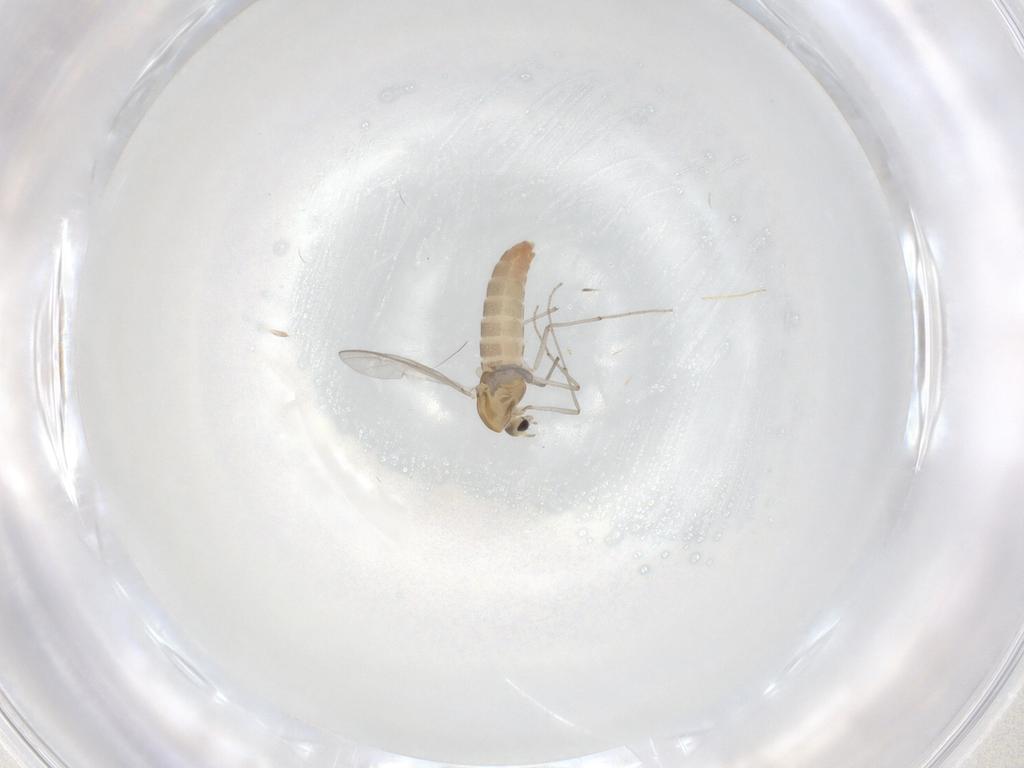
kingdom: Animalia
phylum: Arthropoda
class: Insecta
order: Diptera
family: Chironomidae
